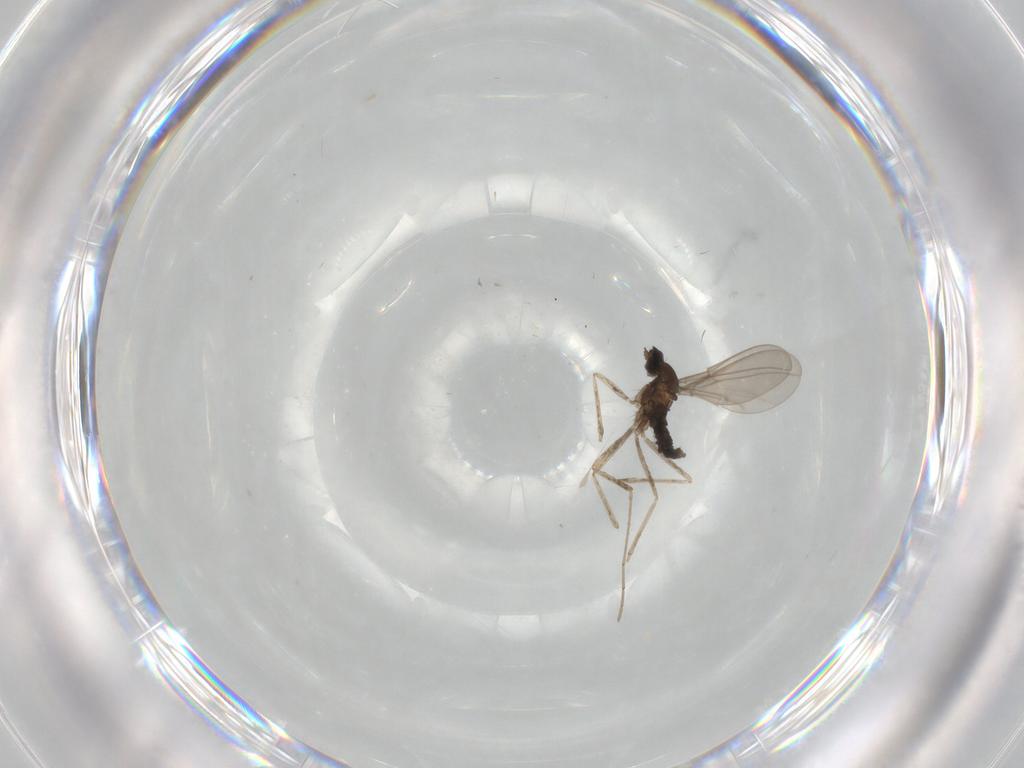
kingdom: Animalia
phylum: Arthropoda
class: Insecta
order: Diptera
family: Cecidomyiidae
